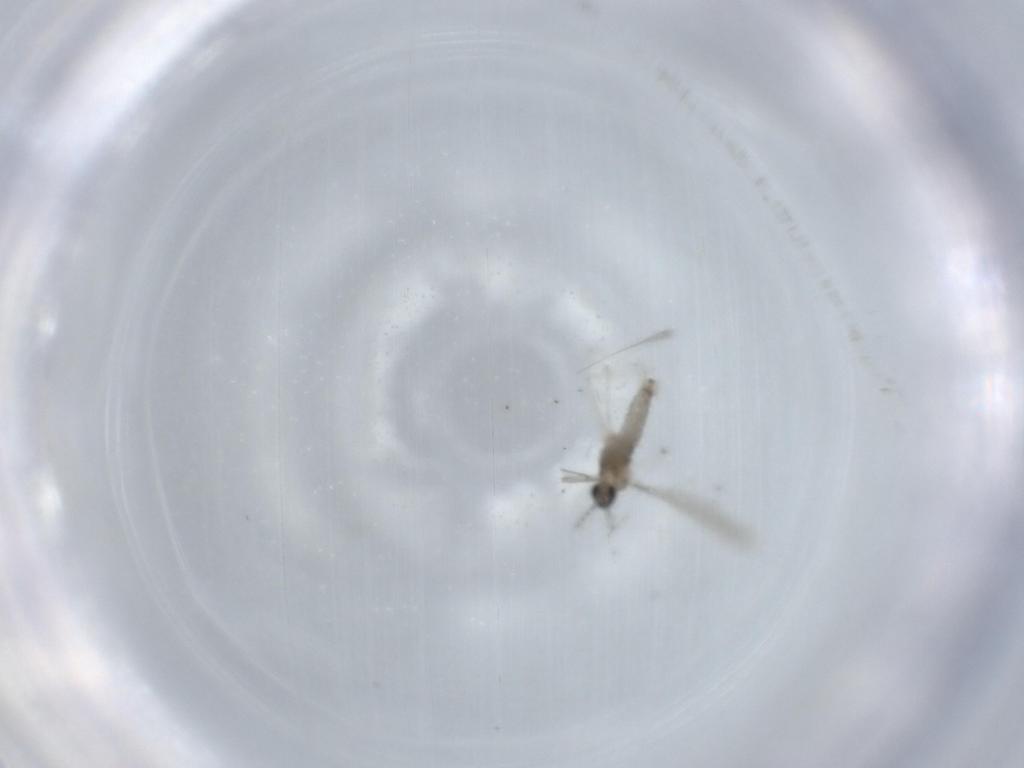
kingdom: Animalia
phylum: Arthropoda
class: Insecta
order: Diptera
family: Cecidomyiidae
